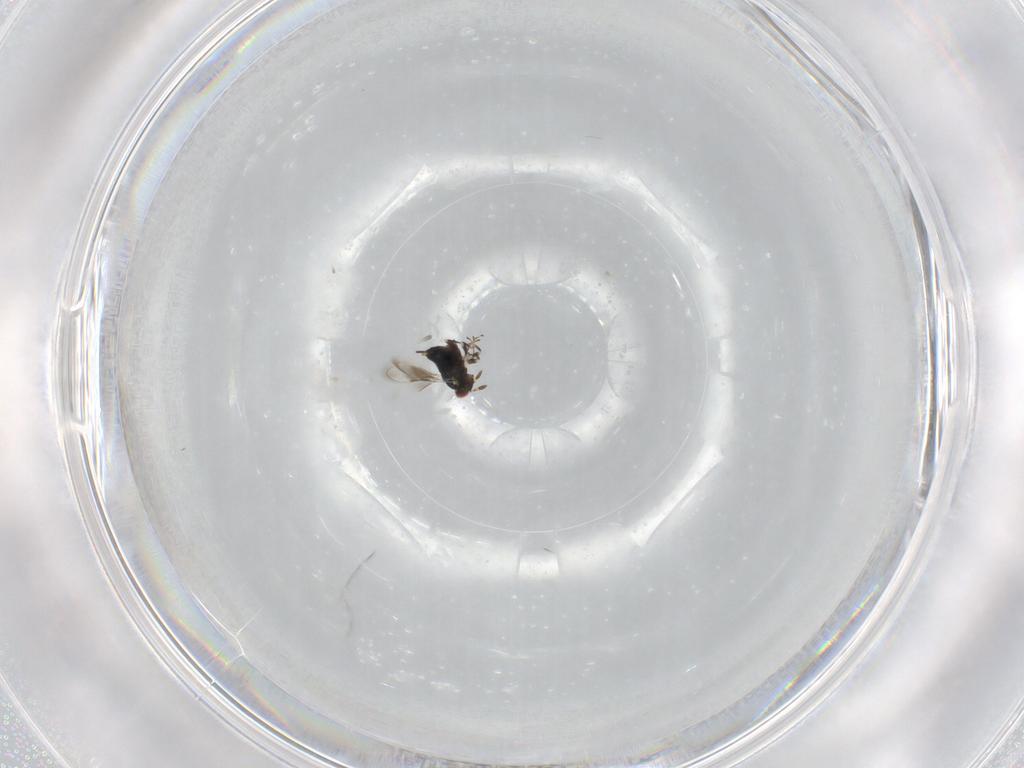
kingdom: Animalia
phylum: Arthropoda
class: Insecta
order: Hymenoptera
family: Azotidae
